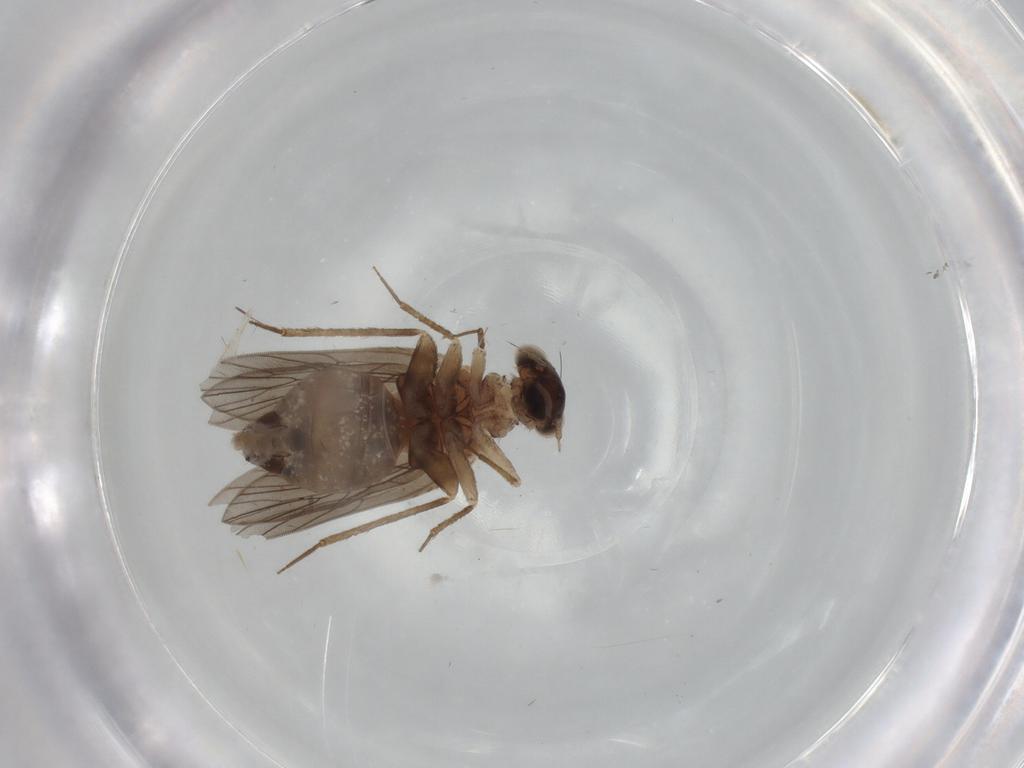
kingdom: Animalia
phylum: Arthropoda
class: Insecta
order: Psocodea
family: Lepidopsocidae
